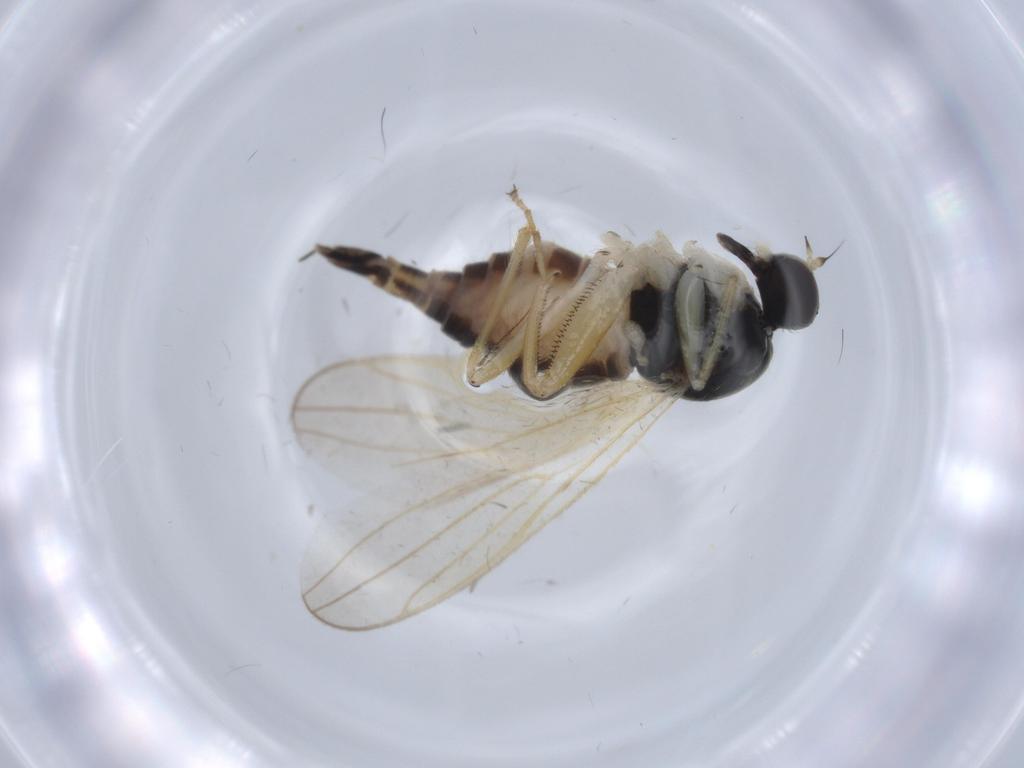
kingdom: Animalia
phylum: Arthropoda
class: Insecta
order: Diptera
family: Hybotidae
